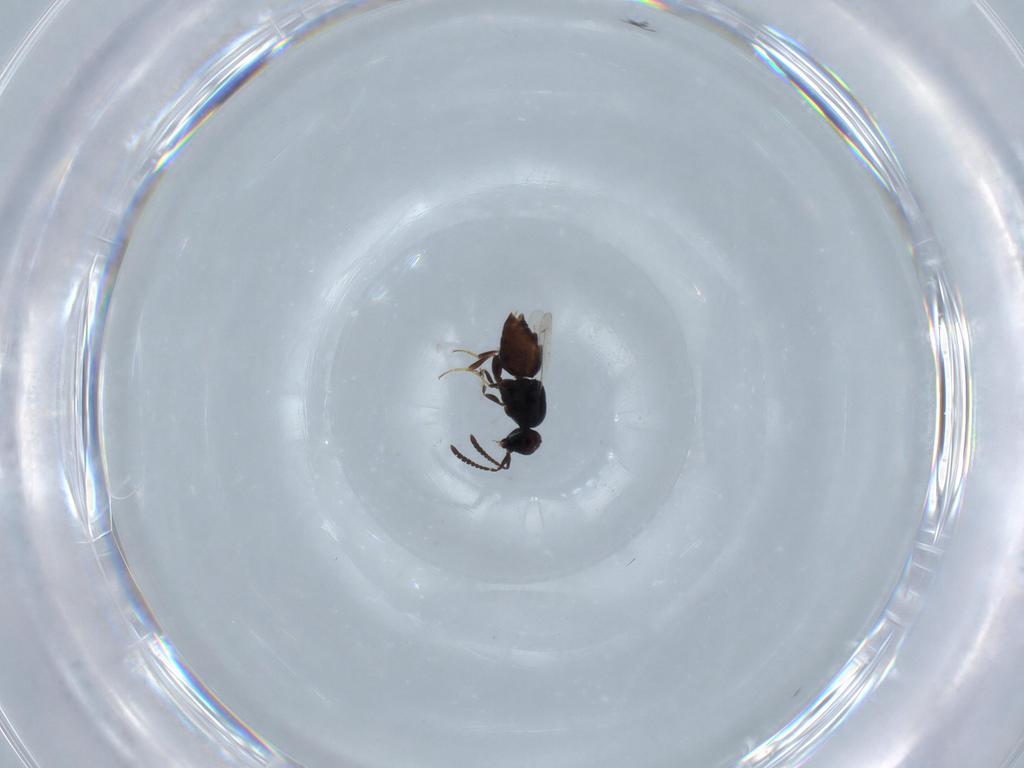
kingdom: Animalia
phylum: Arthropoda
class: Insecta
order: Hymenoptera
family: Ceraphronidae
